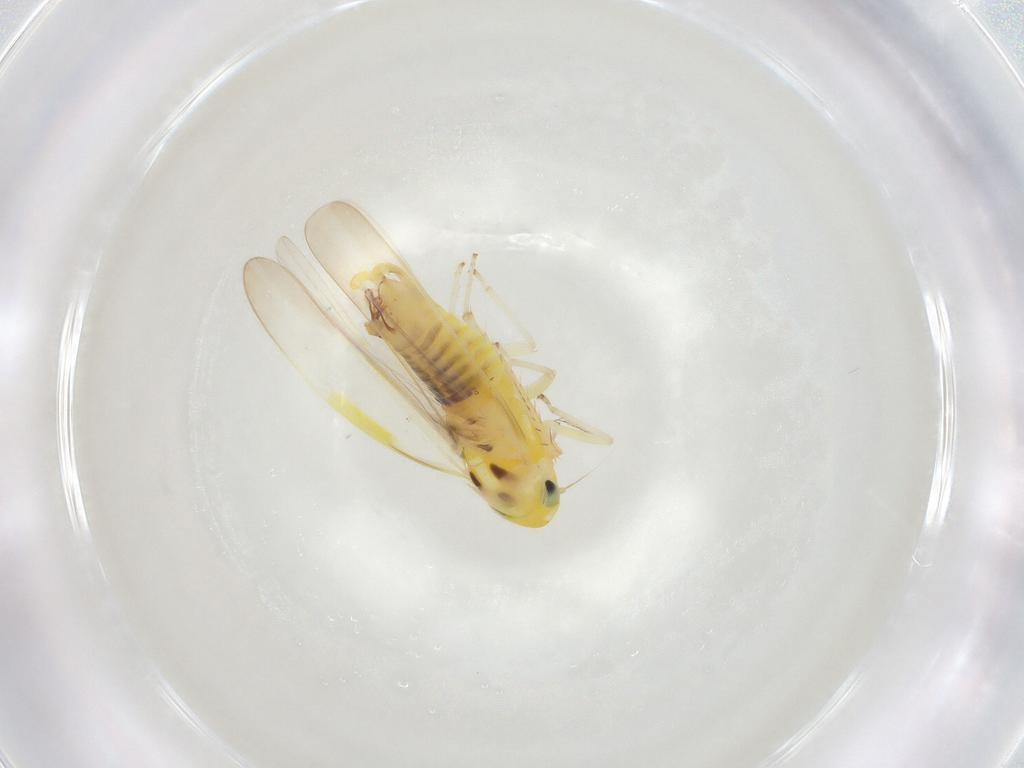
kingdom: Animalia
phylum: Arthropoda
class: Insecta
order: Hemiptera
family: Cicadellidae
